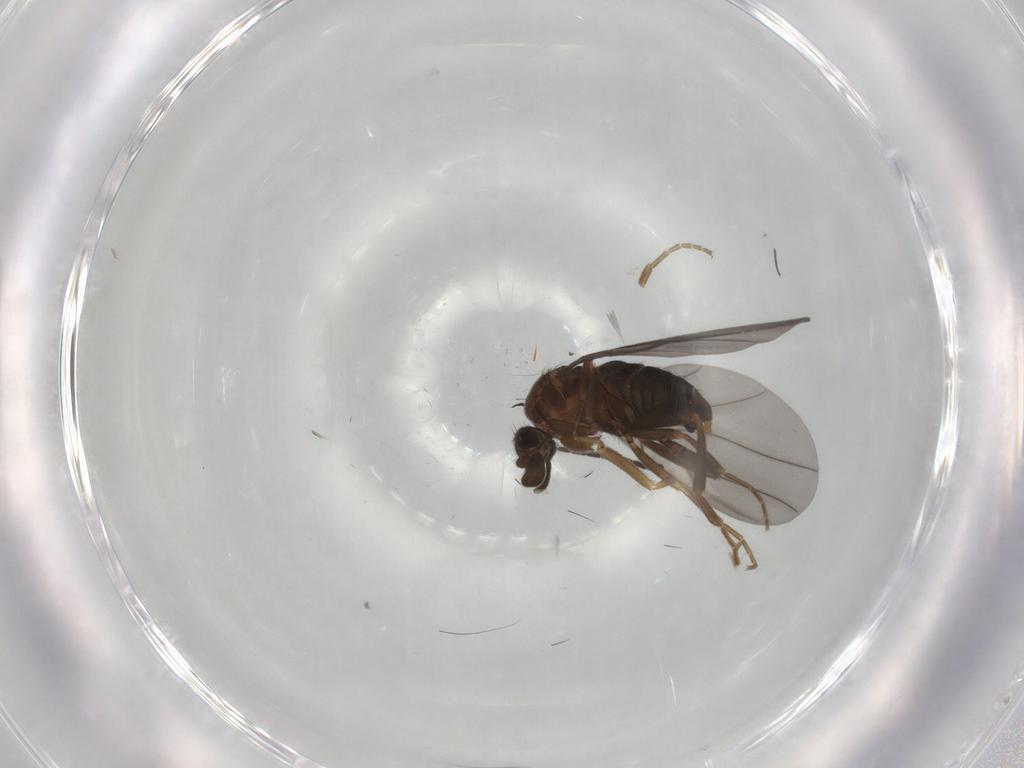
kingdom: Animalia
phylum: Arthropoda
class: Insecta
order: Diptera
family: Sciaridae
